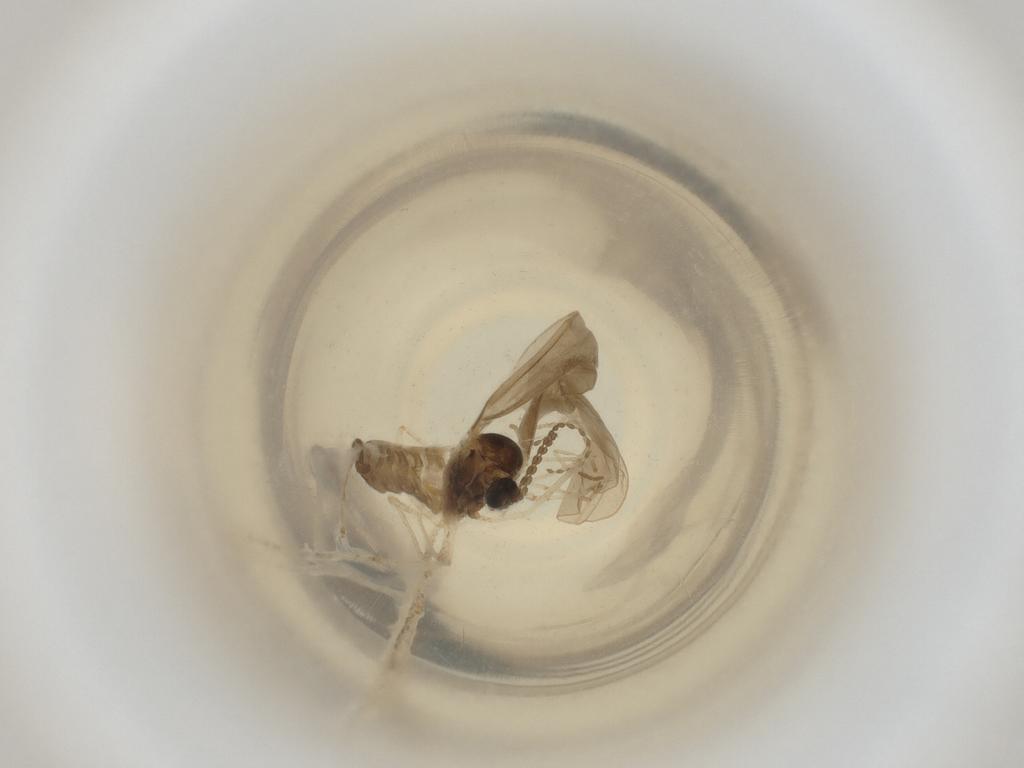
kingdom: Animalia
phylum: Arthropoda
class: Insecta
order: Diptera
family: Cecidomyiidae
